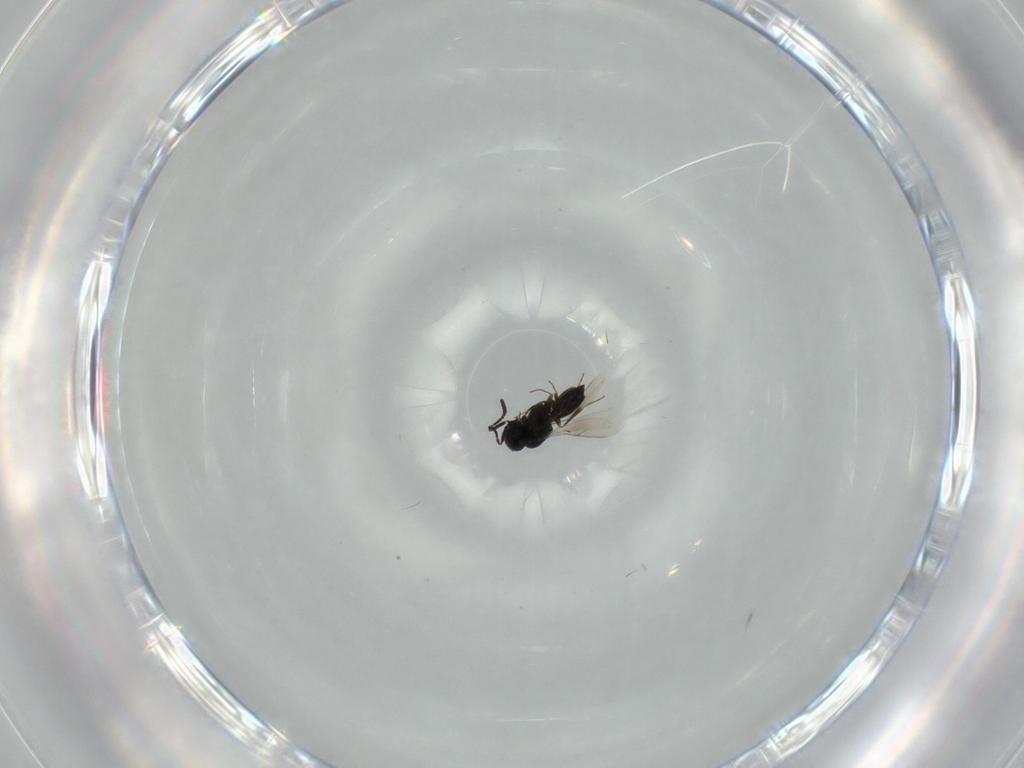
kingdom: Animalia
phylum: Arthropoda
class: Insecta
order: Hymenoptera
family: Scelionidae
